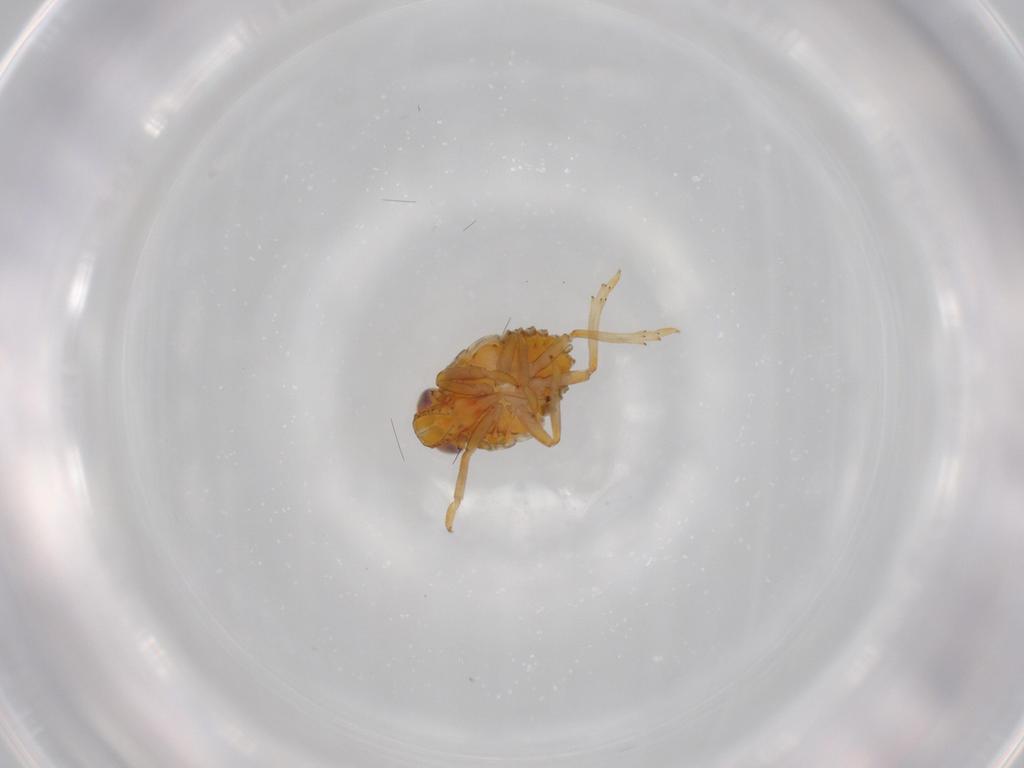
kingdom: Animalia
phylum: Arthropoda
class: Insecta
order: Hemiptera
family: Issidae
